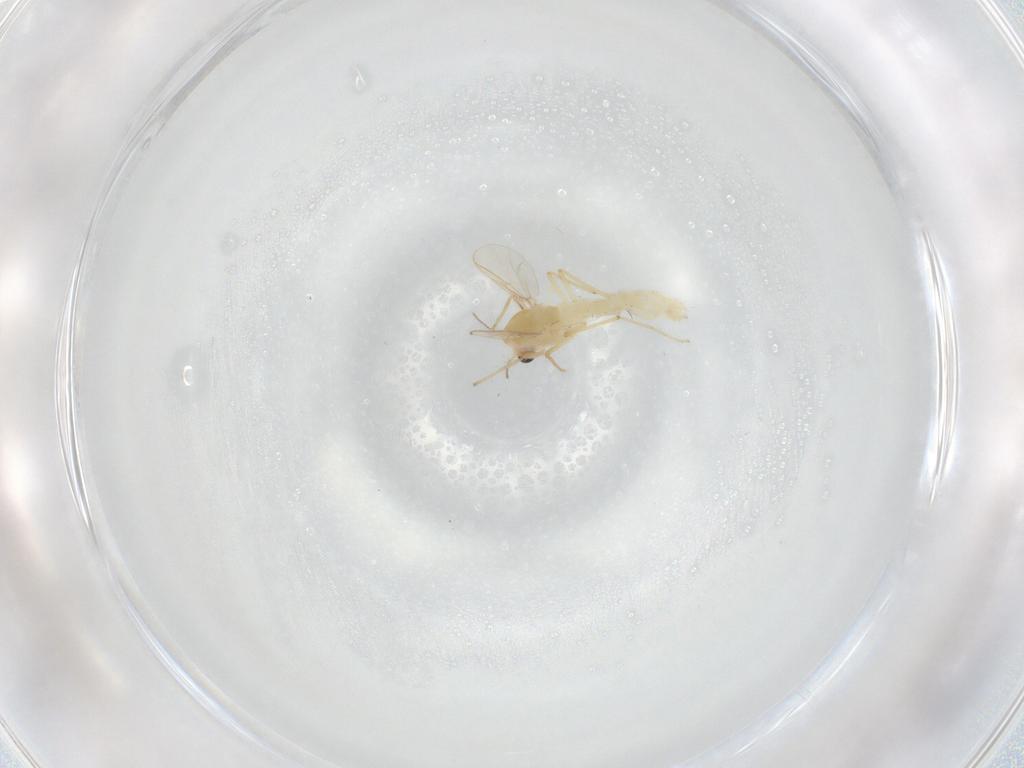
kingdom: Animalia
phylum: Arthropoda
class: Insecta
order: Diptera
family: Chironomidae
